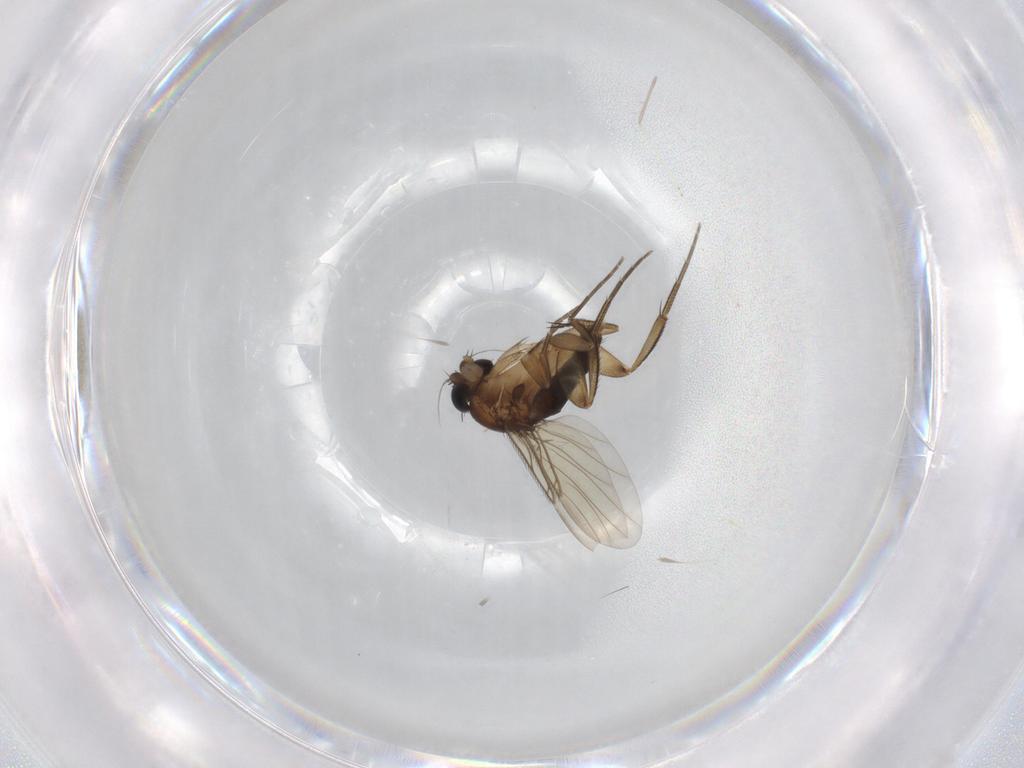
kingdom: Animalia
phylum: Arthropoda
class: Insecta
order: Diptera
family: Phoridae
